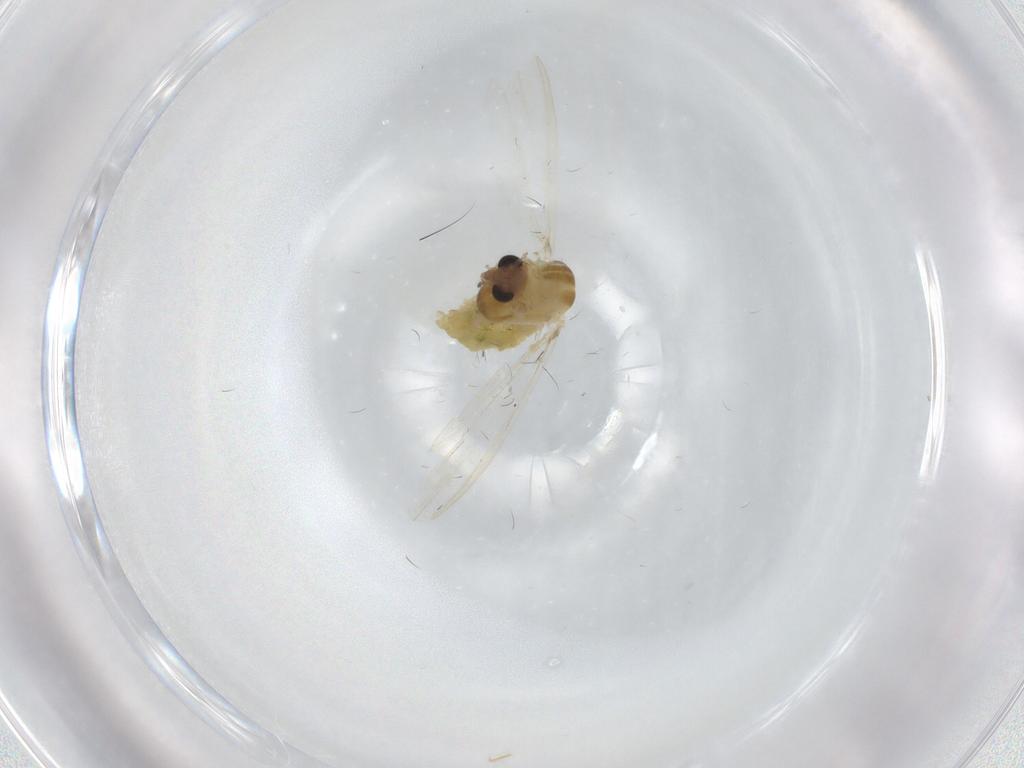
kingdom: Animalia
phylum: Arthropoda
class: Insecta
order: Diptera
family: Chironomidae
